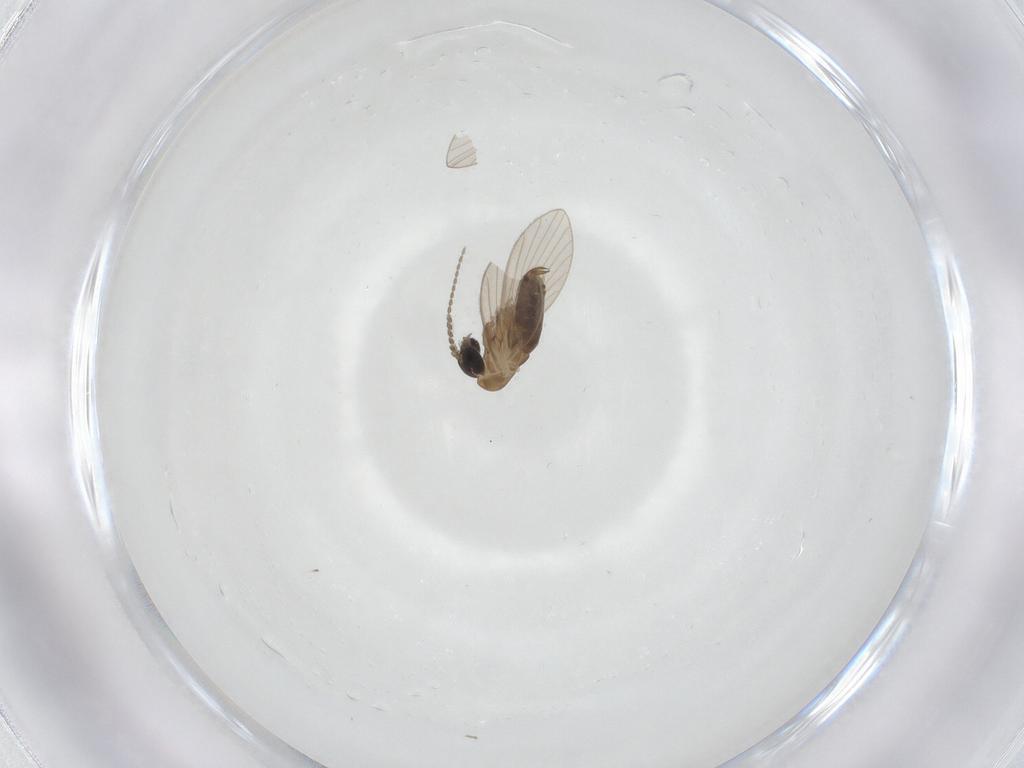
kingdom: Animalia
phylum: Arthropoda
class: Insecta
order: Diptera
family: Psychodidae
